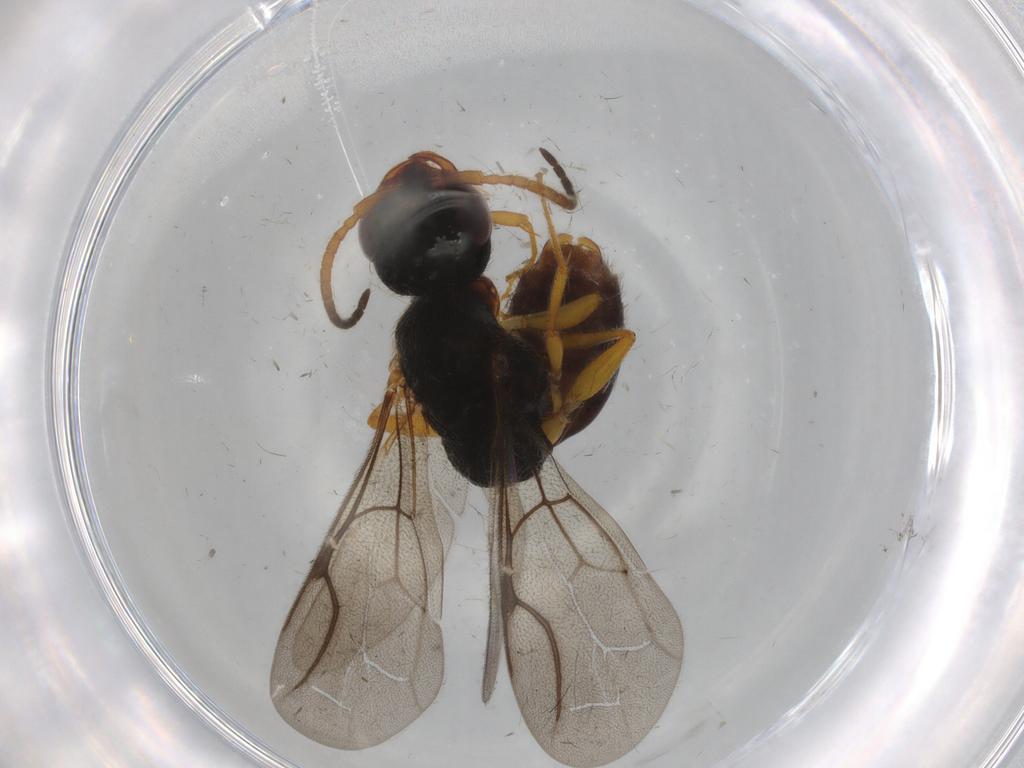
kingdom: Animalia
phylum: Arthropoda
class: Insecta
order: Hymenoptera
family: Bethylidae
